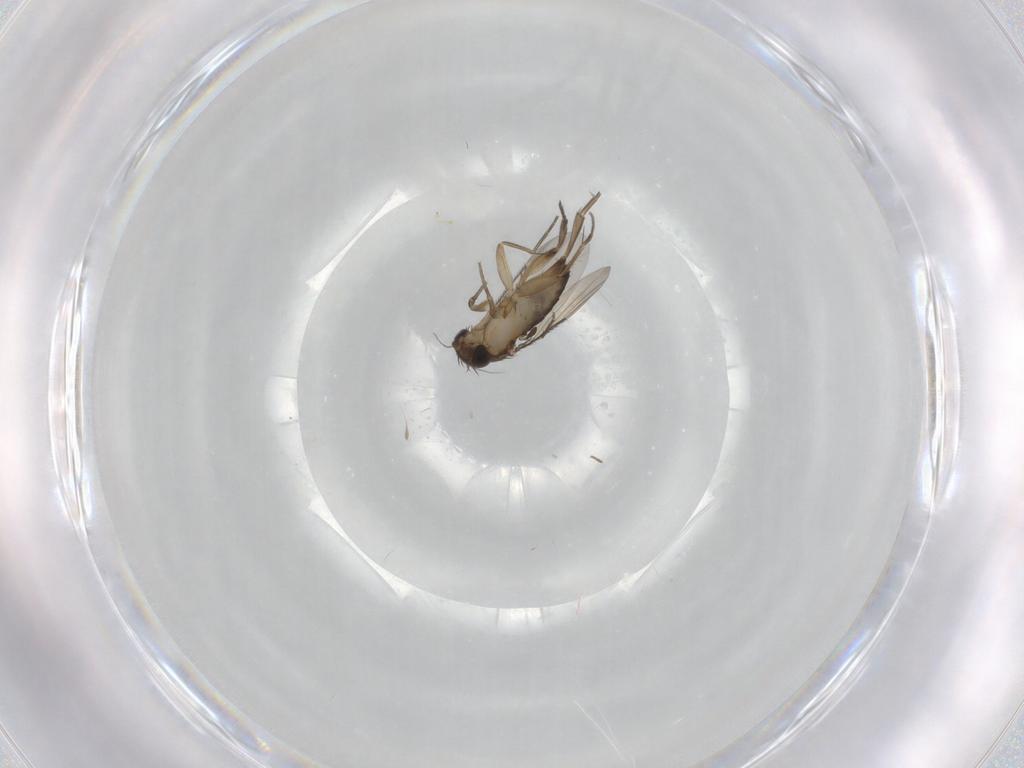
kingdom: Animalia
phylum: Arthropoda
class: Insecta
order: Diptera
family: Phoridae
